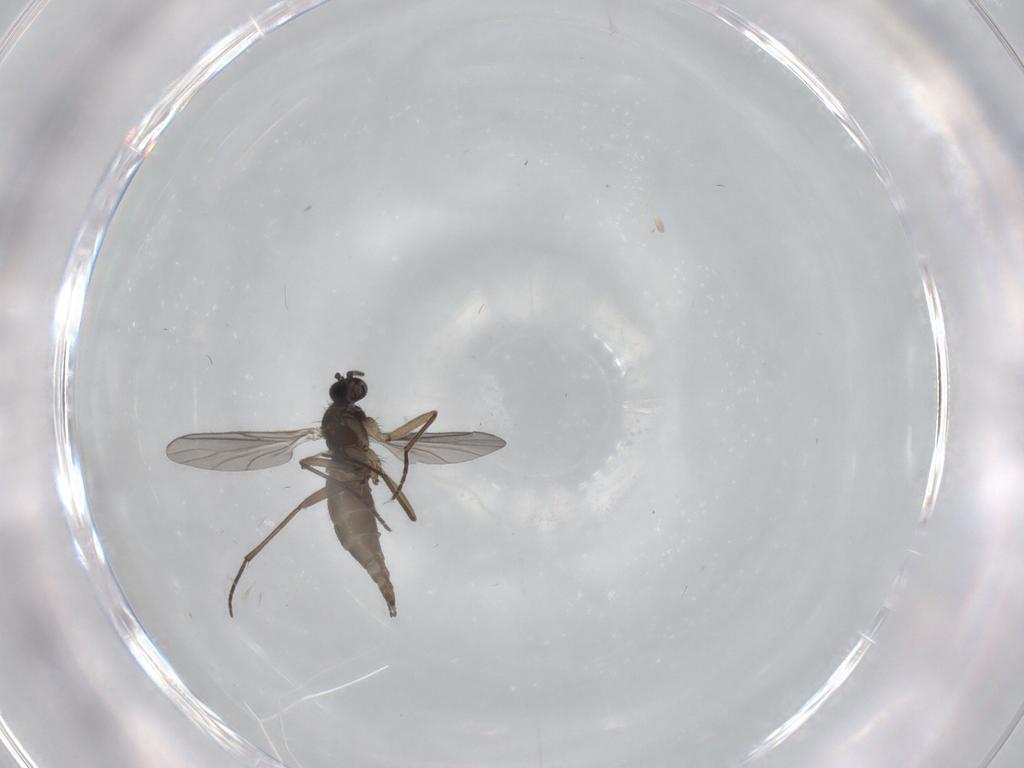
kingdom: Animalia
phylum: Arthropoda
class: Insecta
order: Diptera
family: Sciaridae
